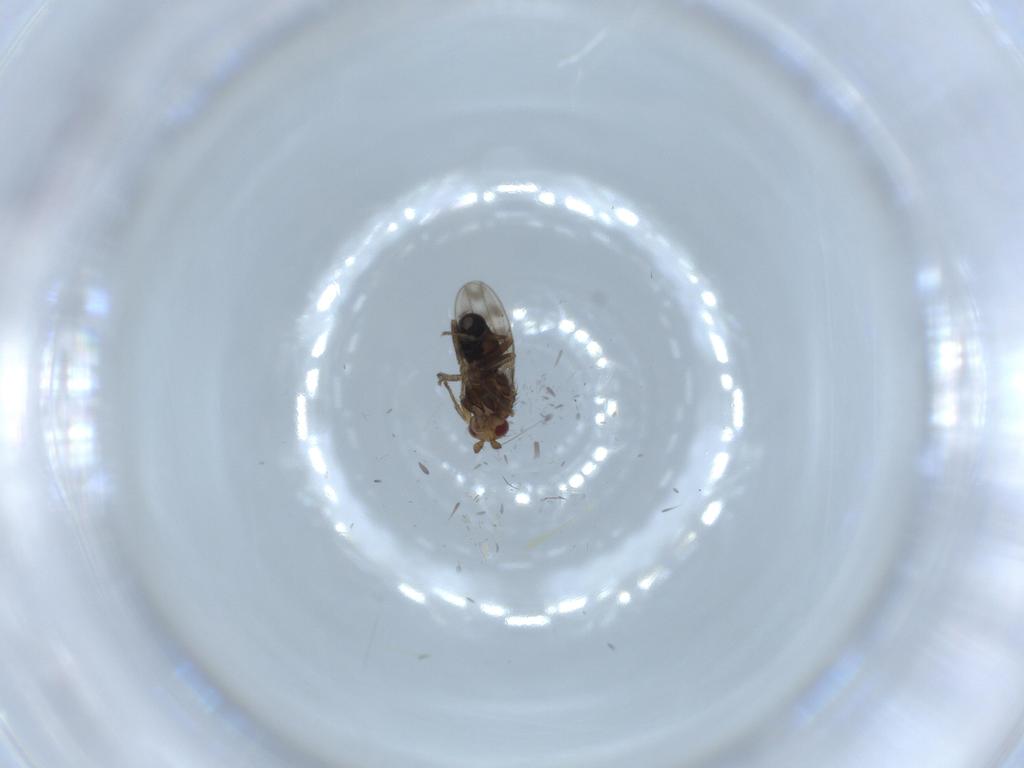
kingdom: Animalia
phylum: Arthropoda
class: Insecta
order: Diptera
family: Sphaeroceridae
